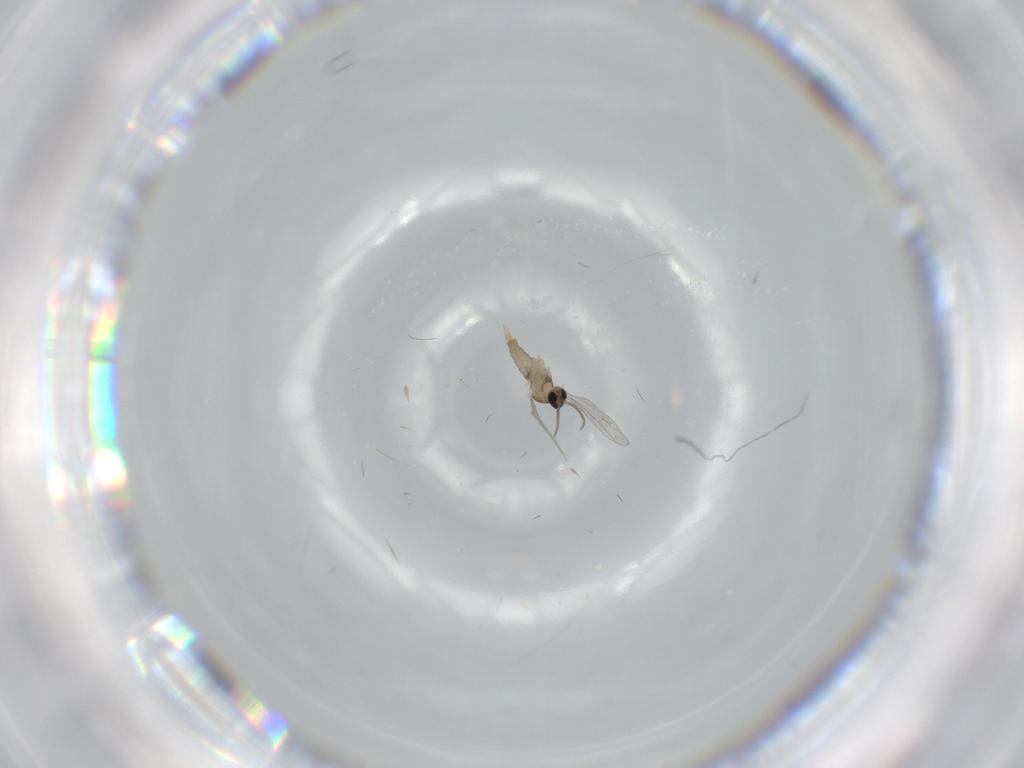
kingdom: Animalia
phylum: Arthropoda
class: Insecta
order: Diptera
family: Cecidomyiidae
